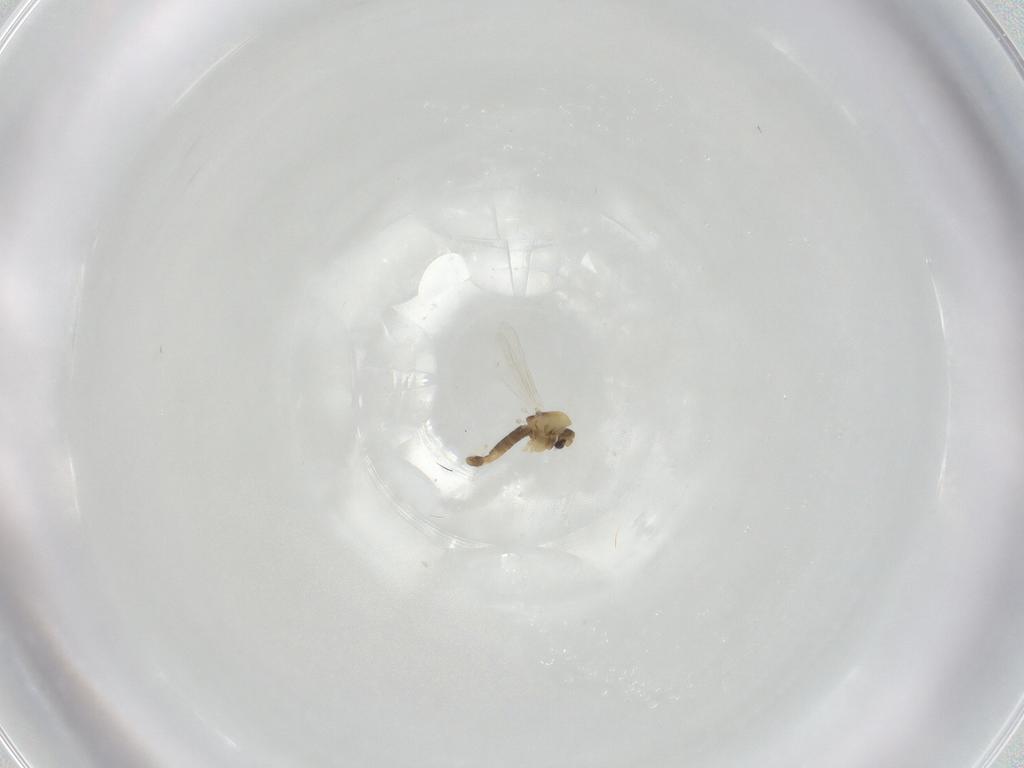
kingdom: Animalia
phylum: Arthropoda
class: Insecta
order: Diptera
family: Chironomidae
